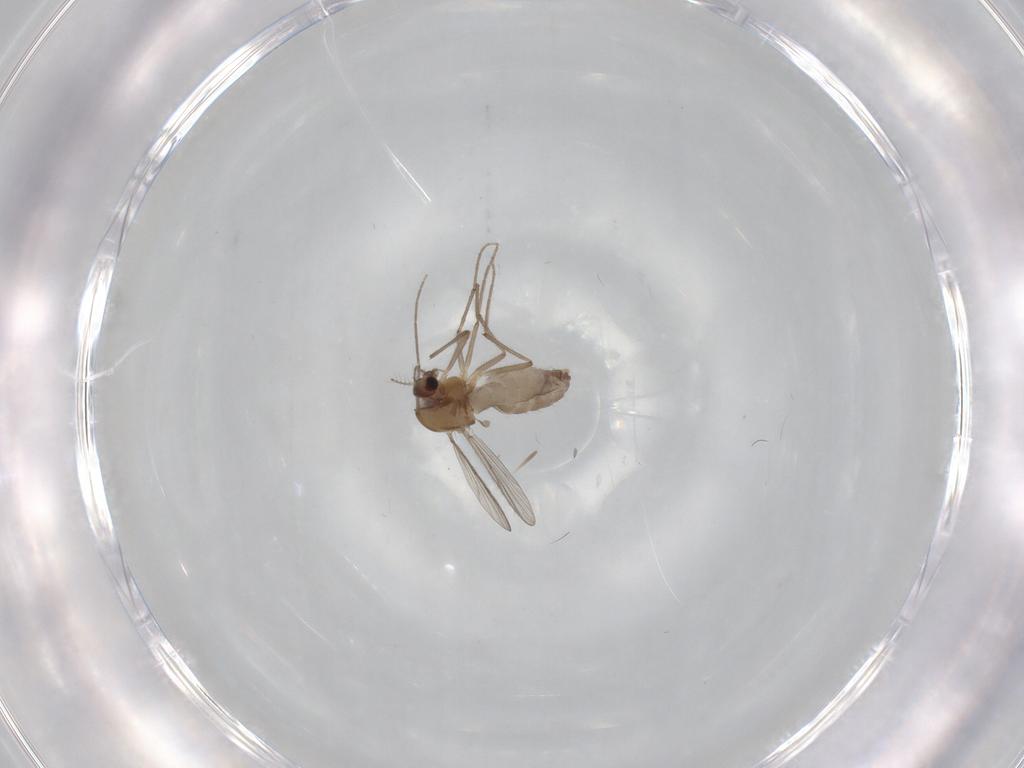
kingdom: Animalia
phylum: Arthropoda
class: Insecta
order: Diptera
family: Chironomidae
